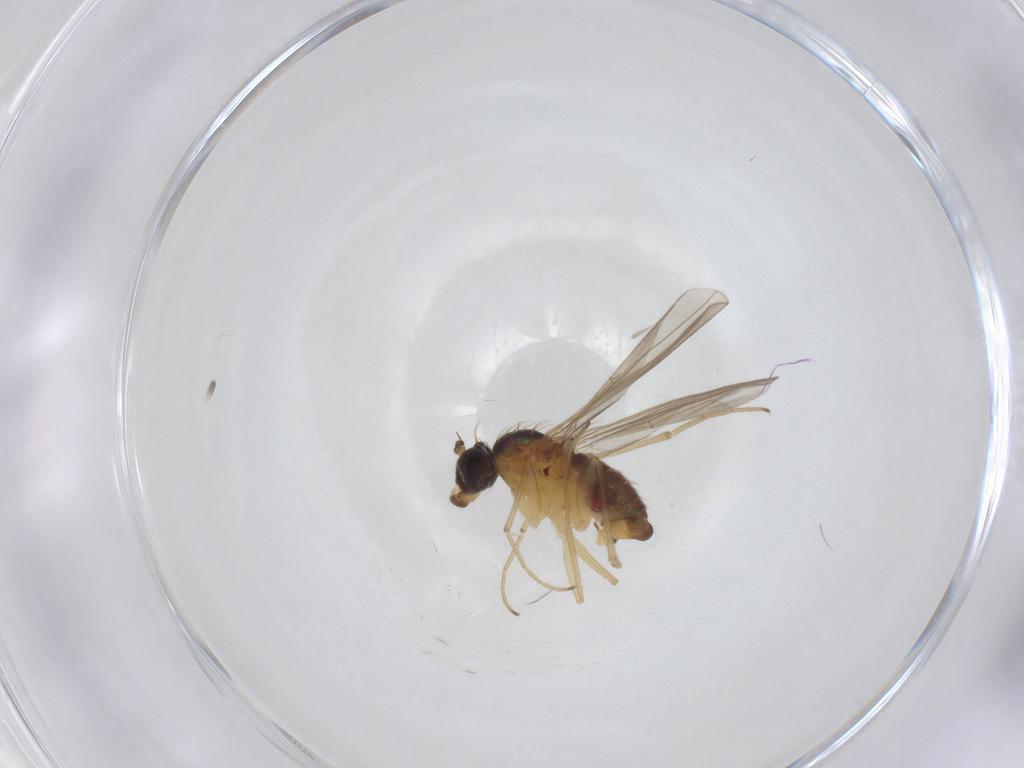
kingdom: Animalia
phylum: Arthropoda
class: Insecta
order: Diptera
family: Dolichopodidae
